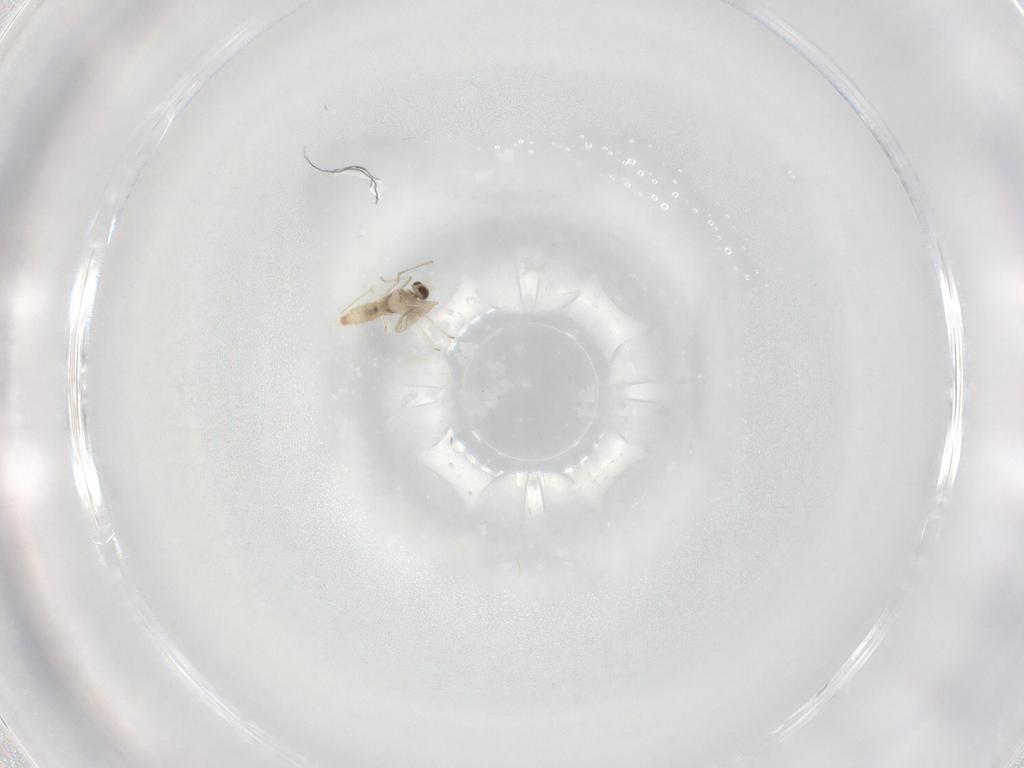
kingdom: Animalia
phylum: Arthropoda
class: Insecta
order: Diptera
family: Cecidomyiidae
